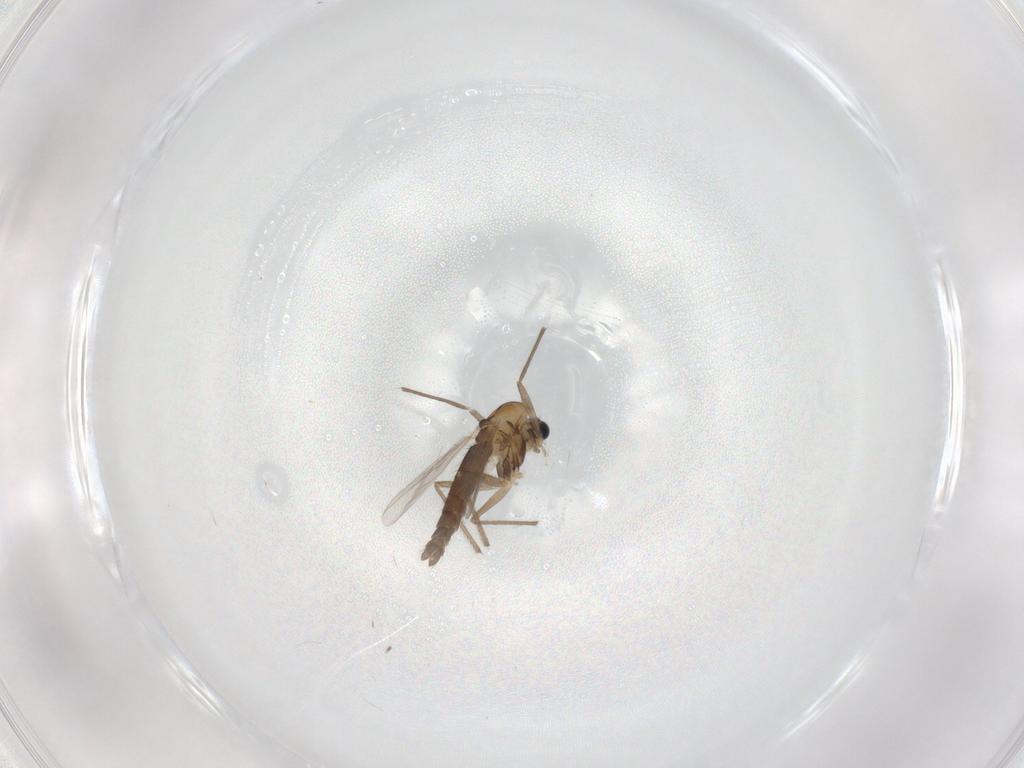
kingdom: Animalia
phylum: Arthropoda
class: Insecta
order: Diptera
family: Chironomidae
